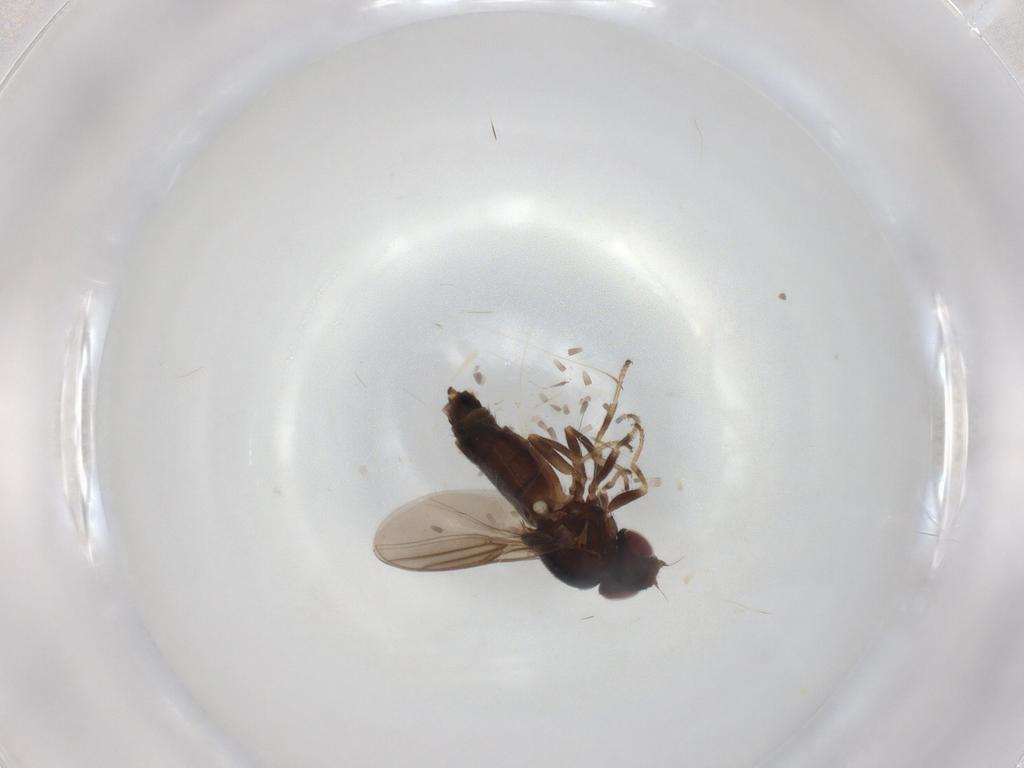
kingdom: Animalia
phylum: Arthropoda
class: Insecta
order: Diptera
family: Chloropidae
